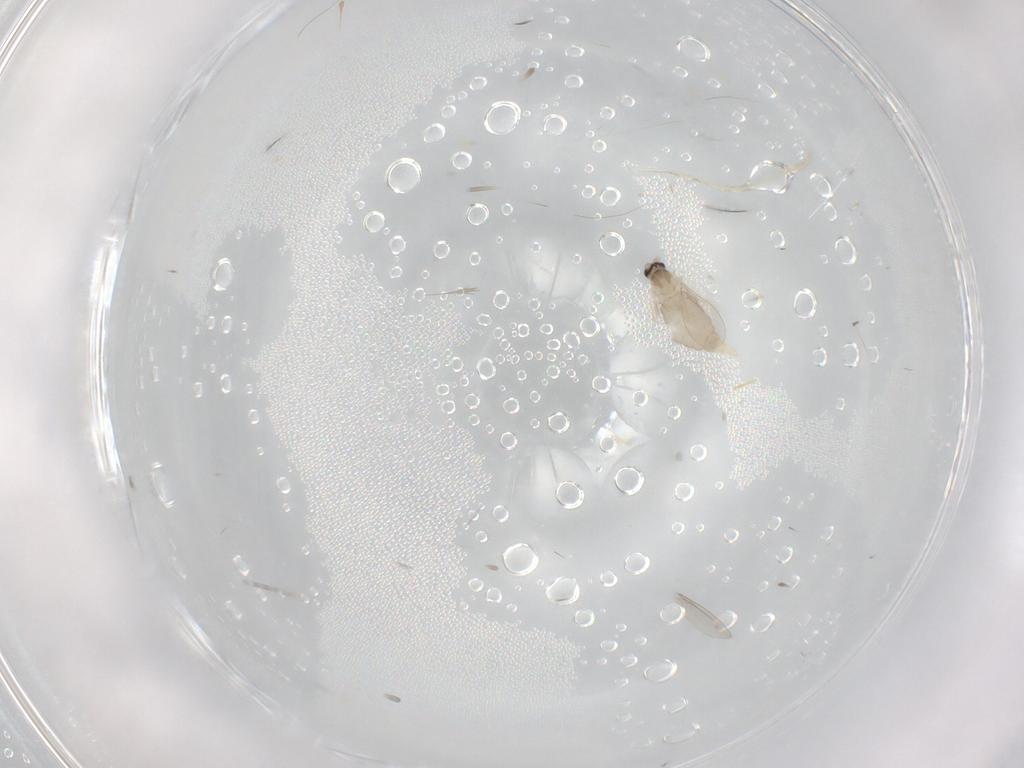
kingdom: Animalia
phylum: Arthropoda
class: Insecta
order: Diptera
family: Cecidomyiidae
